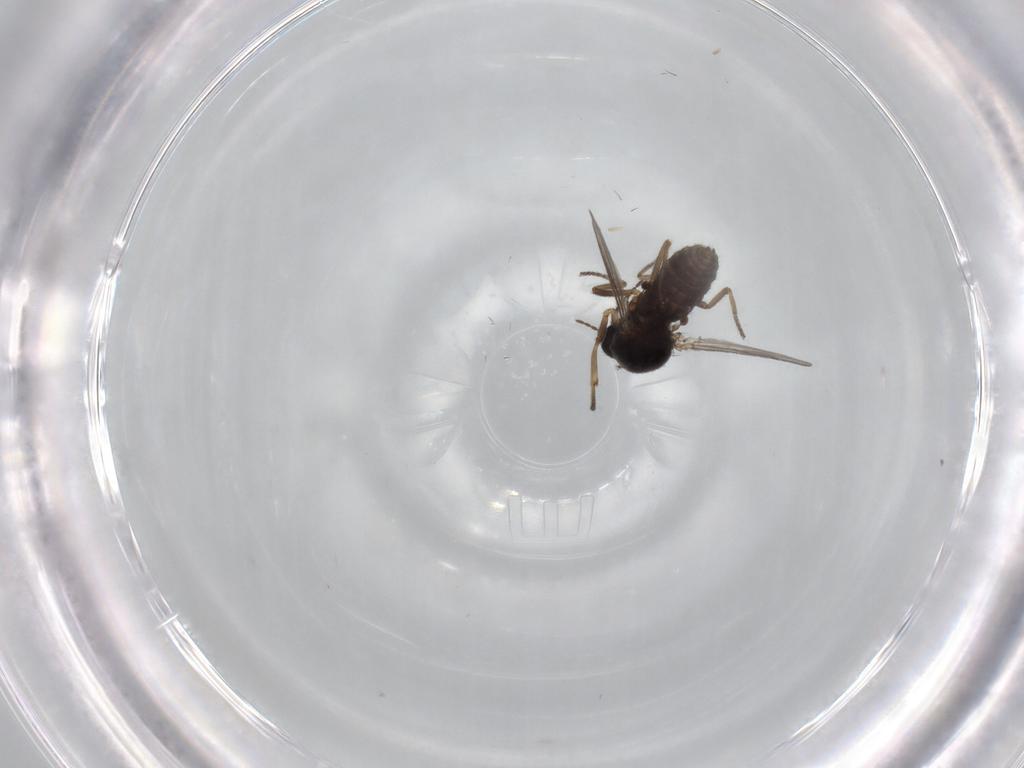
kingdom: Animalia
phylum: Arthropoda
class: Insecta
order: Diptera
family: Ceratopogonidae
